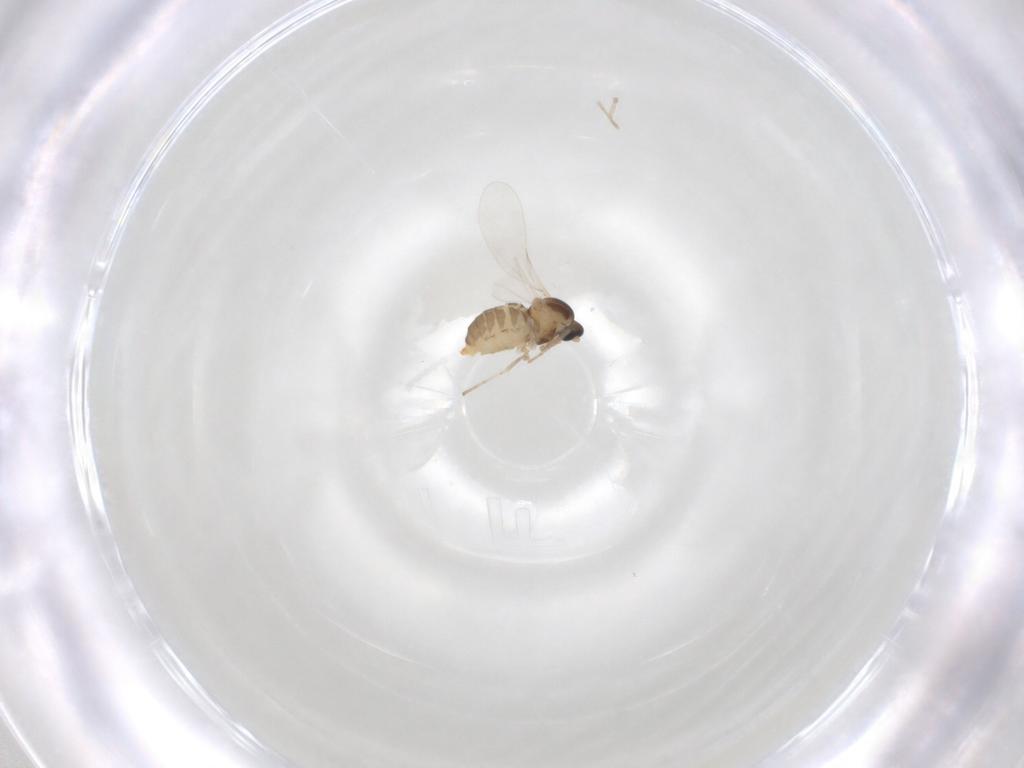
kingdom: Animalia
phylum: Arthropoda
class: Insecta
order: Diptera
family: Cecidomyiidae
